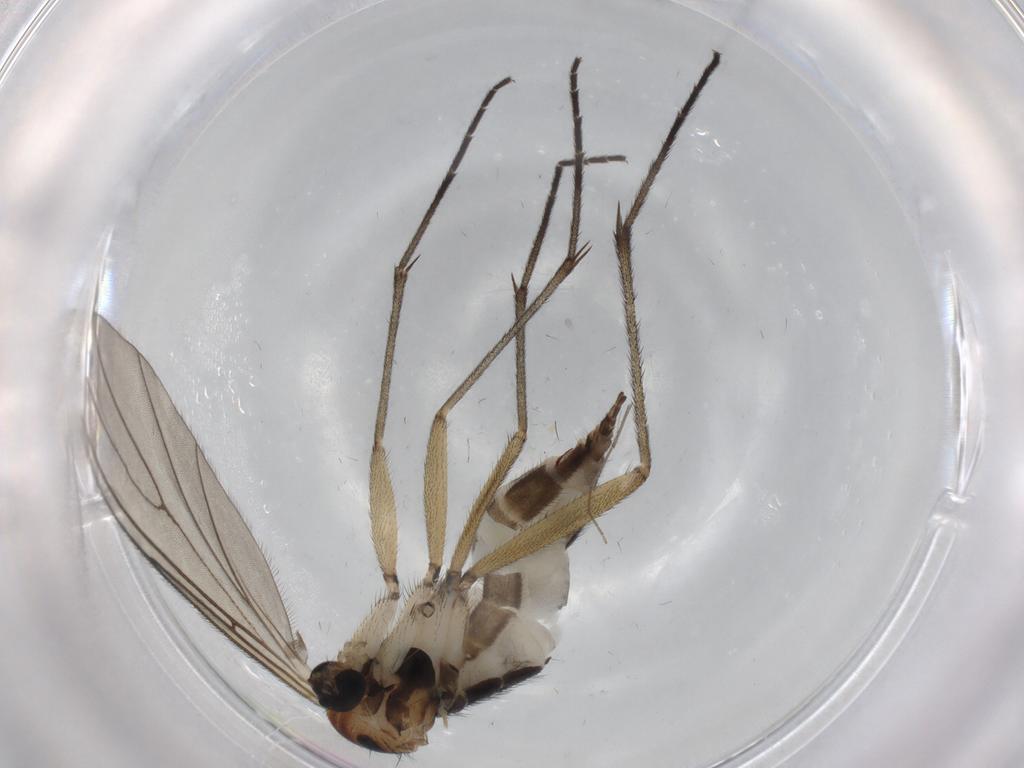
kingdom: Animalia
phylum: Arthropoda
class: Insecta
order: Diptera
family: Sciaridae
